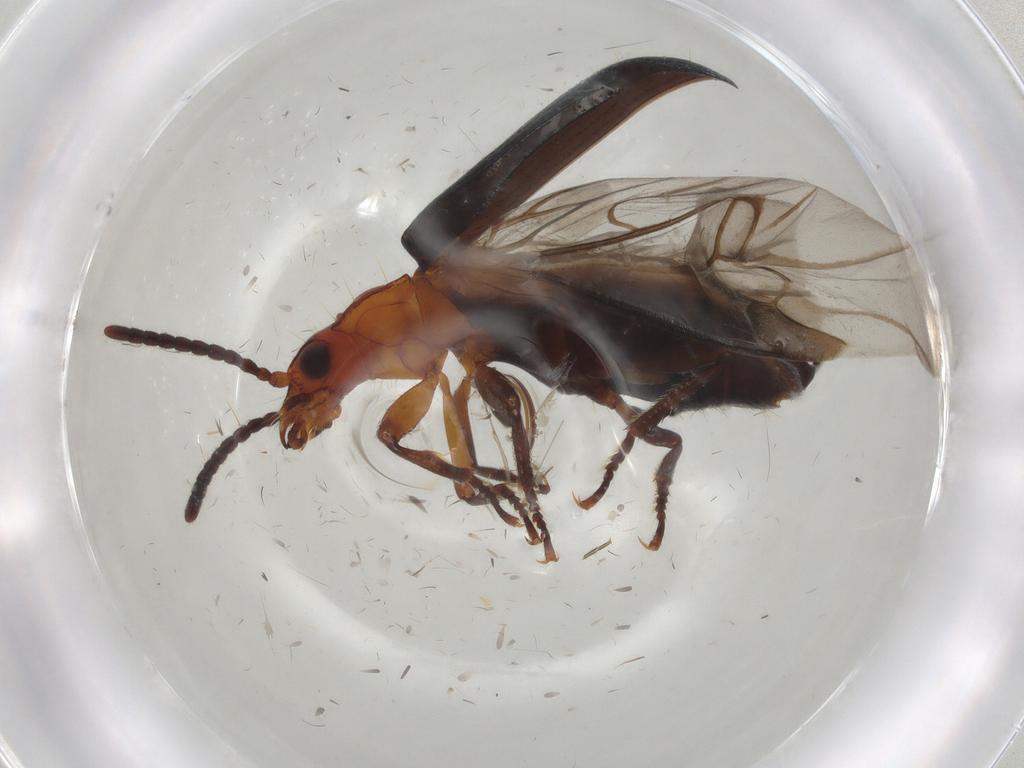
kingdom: Animalia
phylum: Arthropoda
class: Insecta
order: Coleoptera
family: Carabidae
